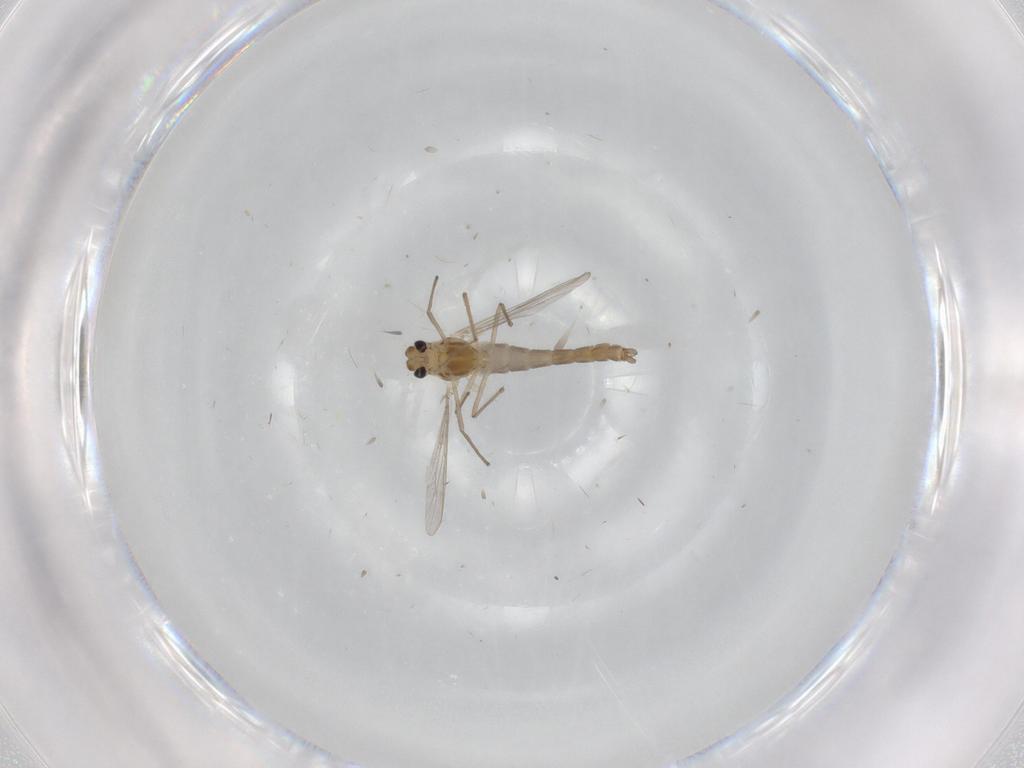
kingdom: Animalia
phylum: Arthropoda
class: Insecta
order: Diptera
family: Chironomidae
